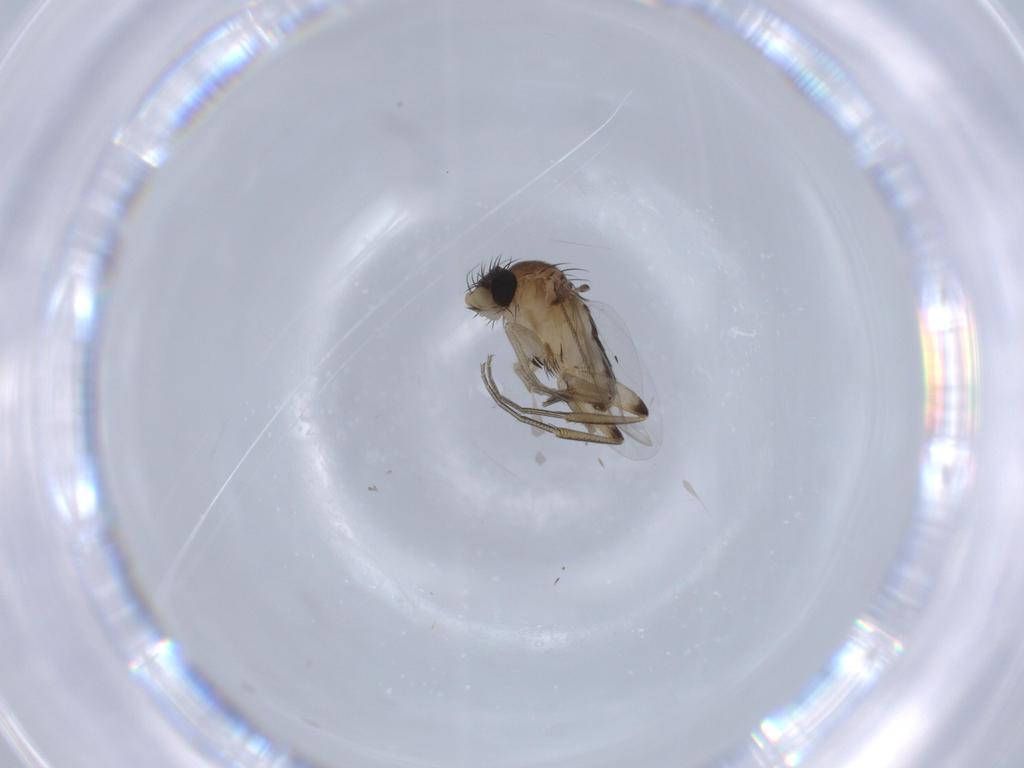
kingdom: Animalia
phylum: Arthropoda
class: Insecta
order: Diptera
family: Phoridae
